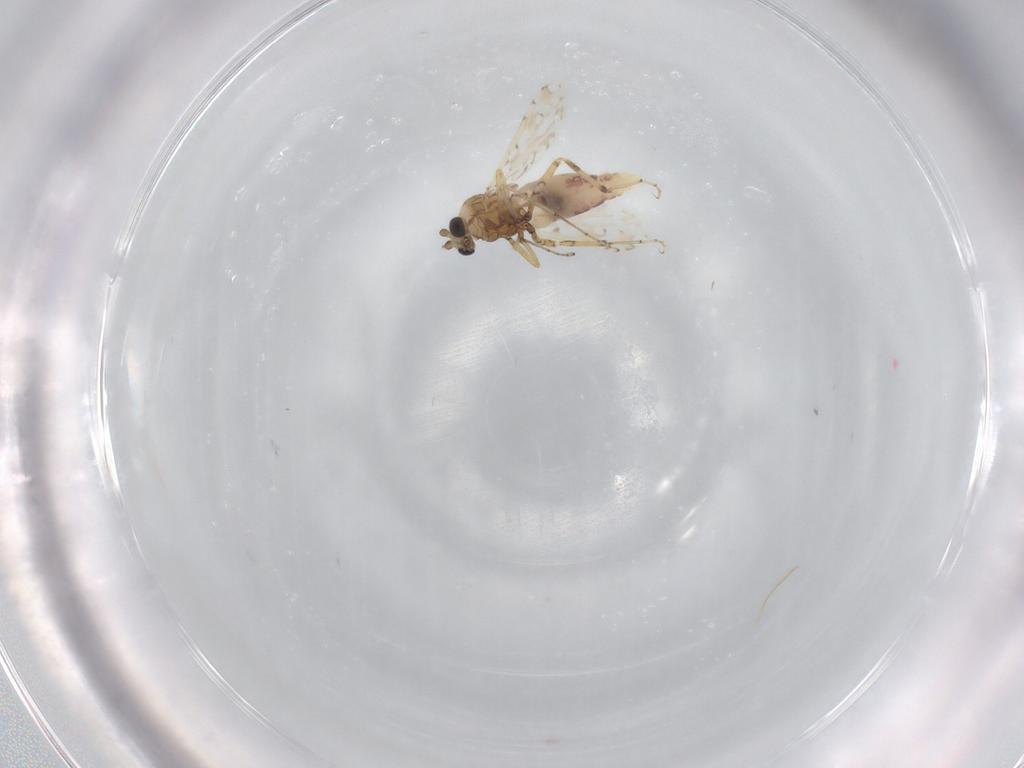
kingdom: Animalia
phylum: Arthropoda
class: Insecta
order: Diptera
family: Ceratopogonidae
